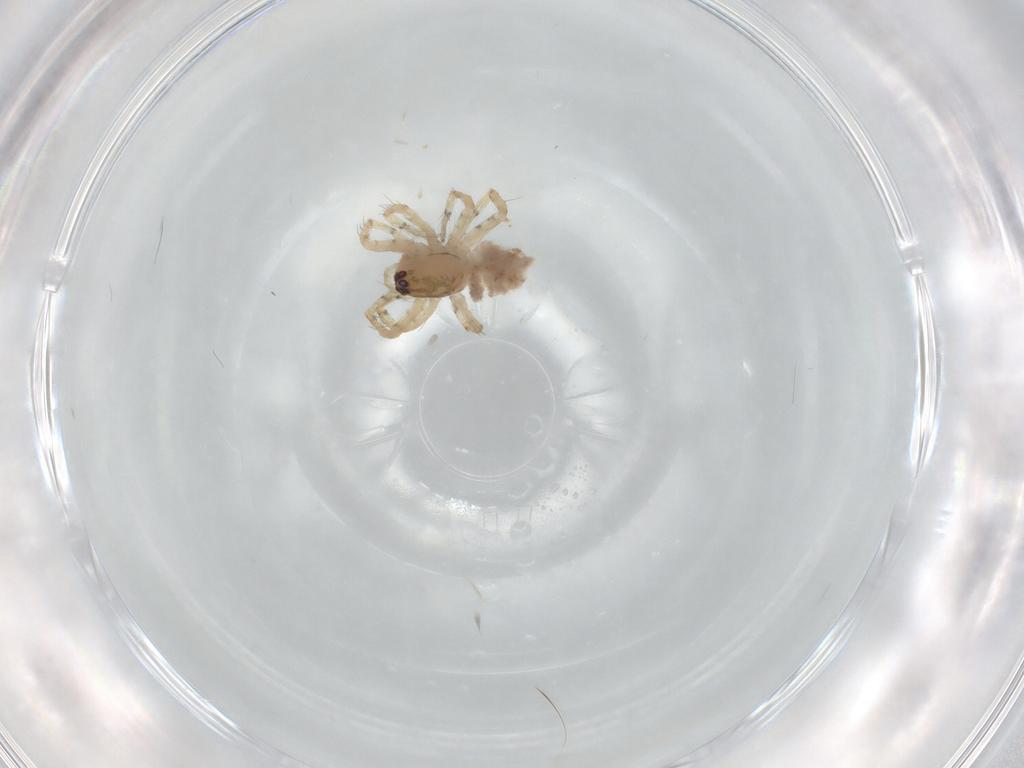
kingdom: Animalia
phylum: Arthropoda
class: Arachnida
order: Araneae
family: Theridiidae
